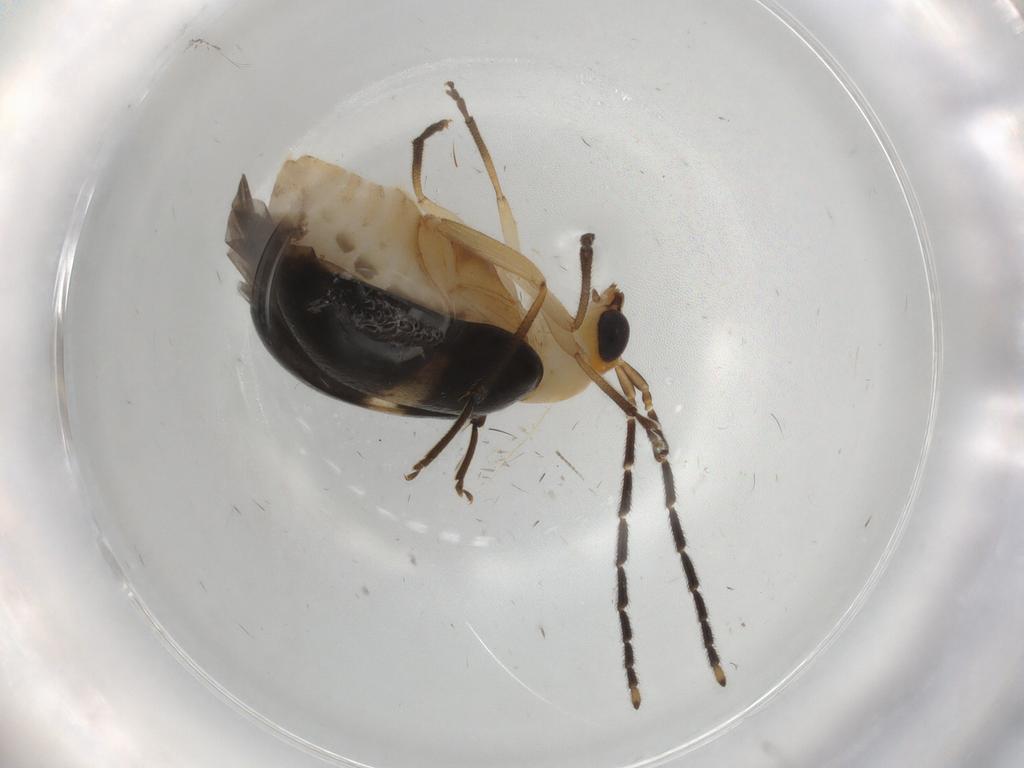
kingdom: Animalia
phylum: Arthropoda
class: Insecta
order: Coleoptera
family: Chrysomelidae
